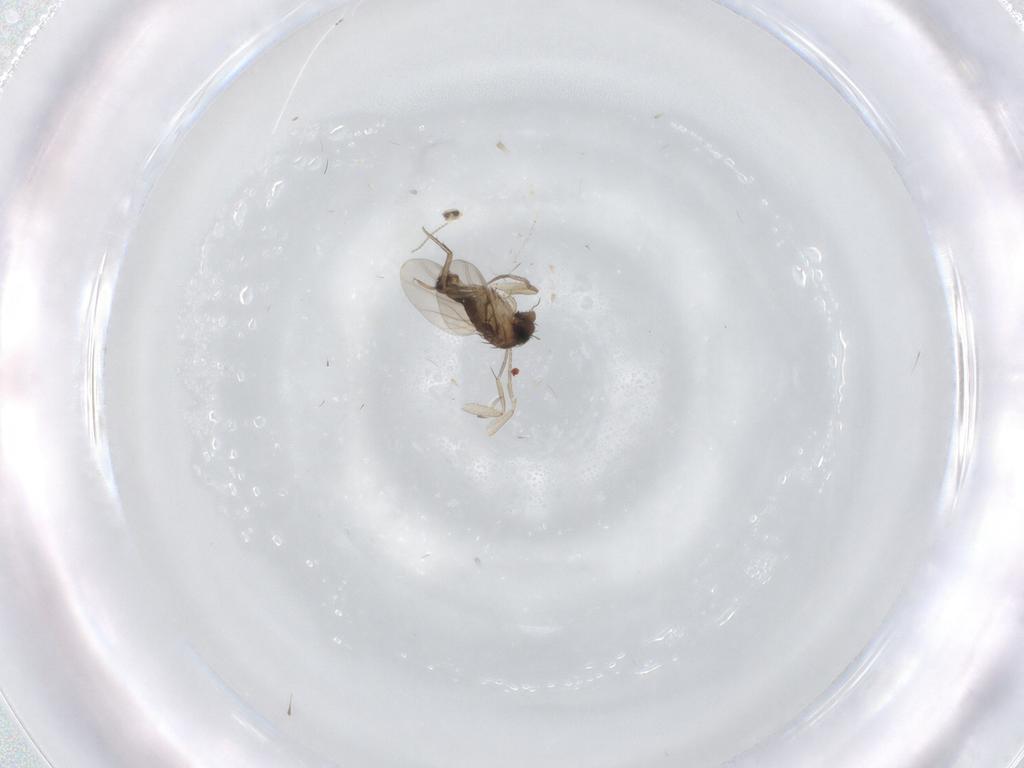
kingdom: Animalia
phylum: Arthropoda
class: Insecta
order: Diptera
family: Phoridae
